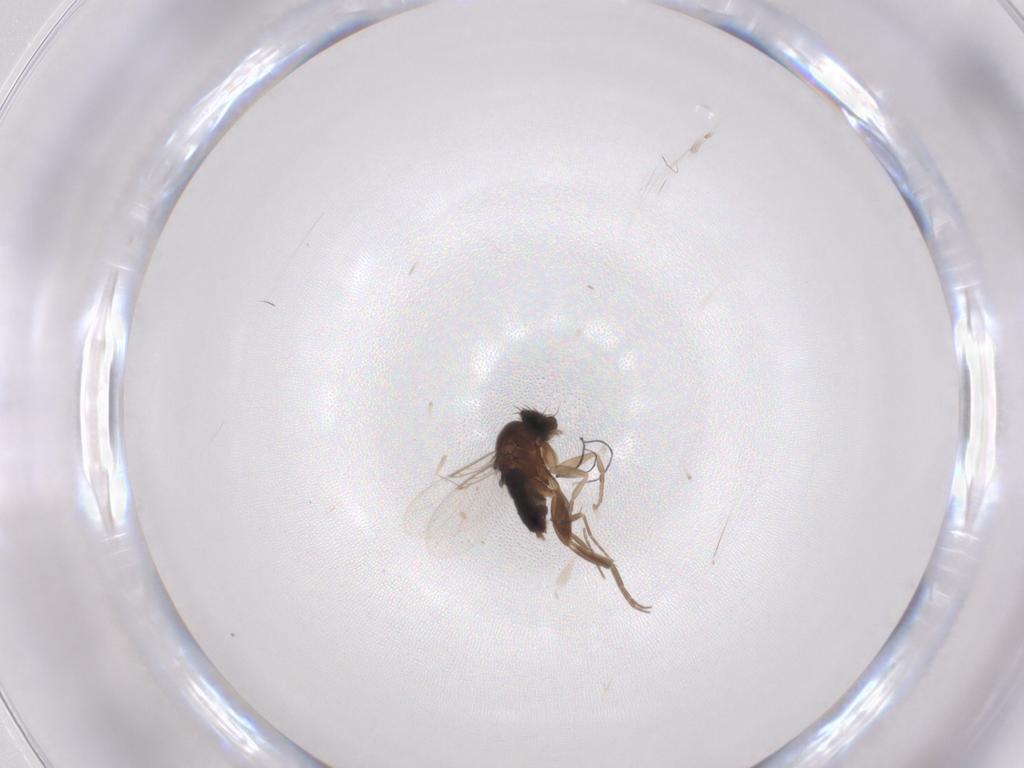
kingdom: Animalia
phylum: Arthropoda
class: Insecta
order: Diptera
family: Phoridae
